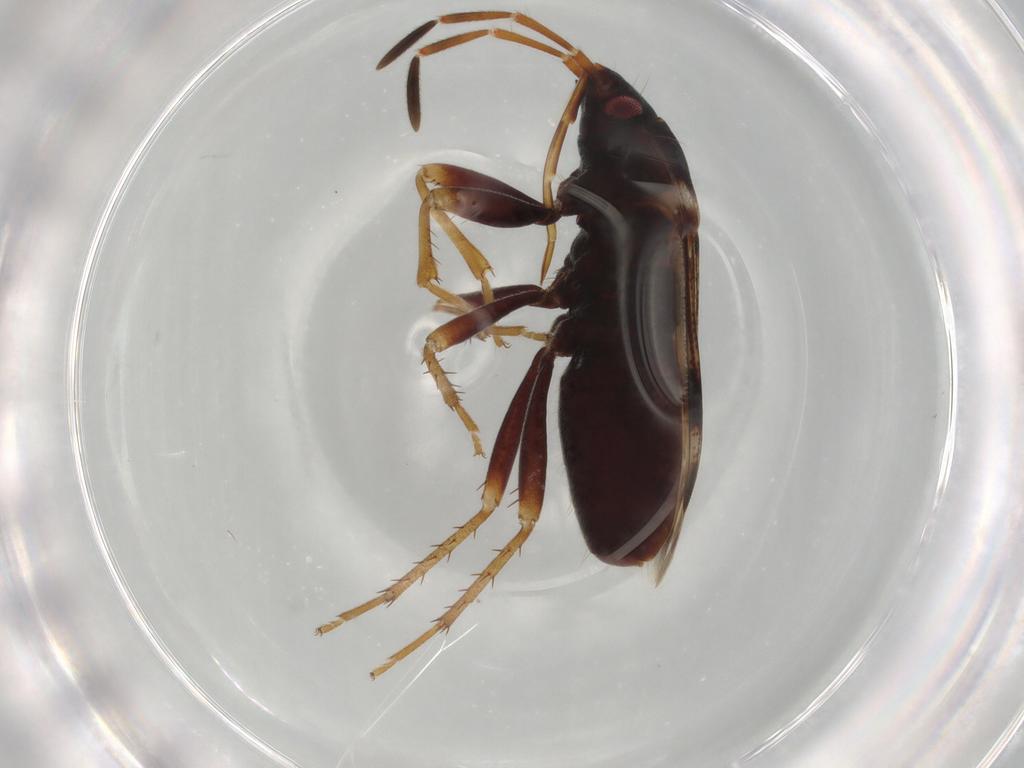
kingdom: Animalia
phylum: Arthropoda
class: Insecta
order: Hemiptera
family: Rhyparochromidae
